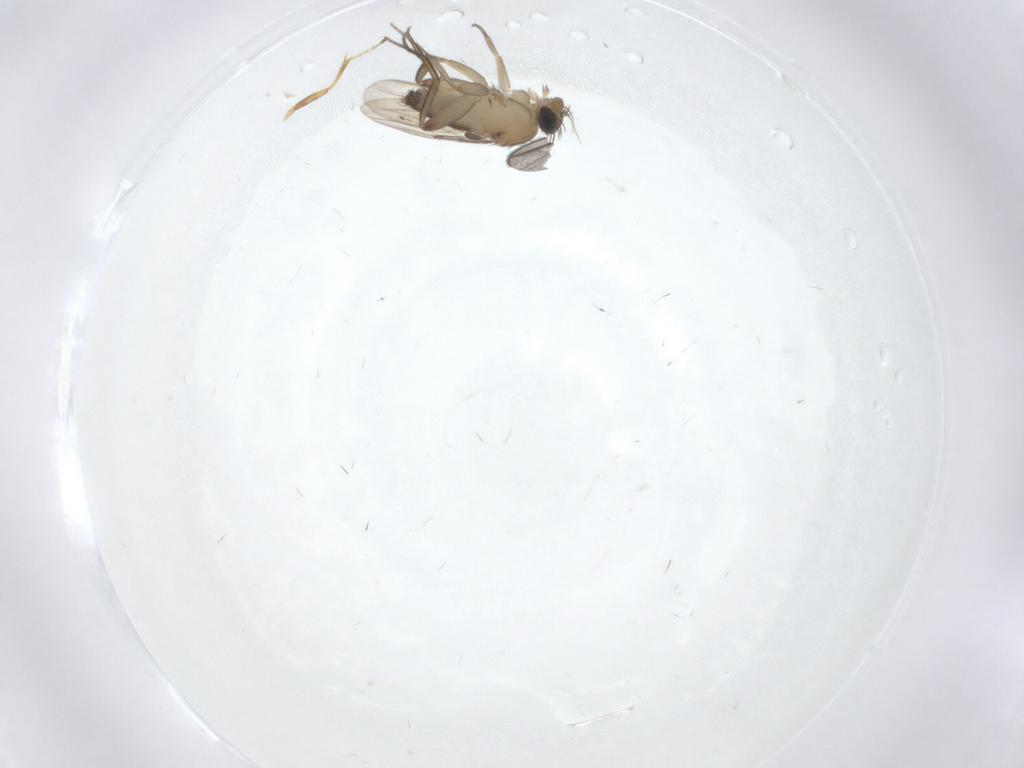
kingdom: Animalia
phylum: Arthropoda
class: Insecta
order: Diptera
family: Phoridae
